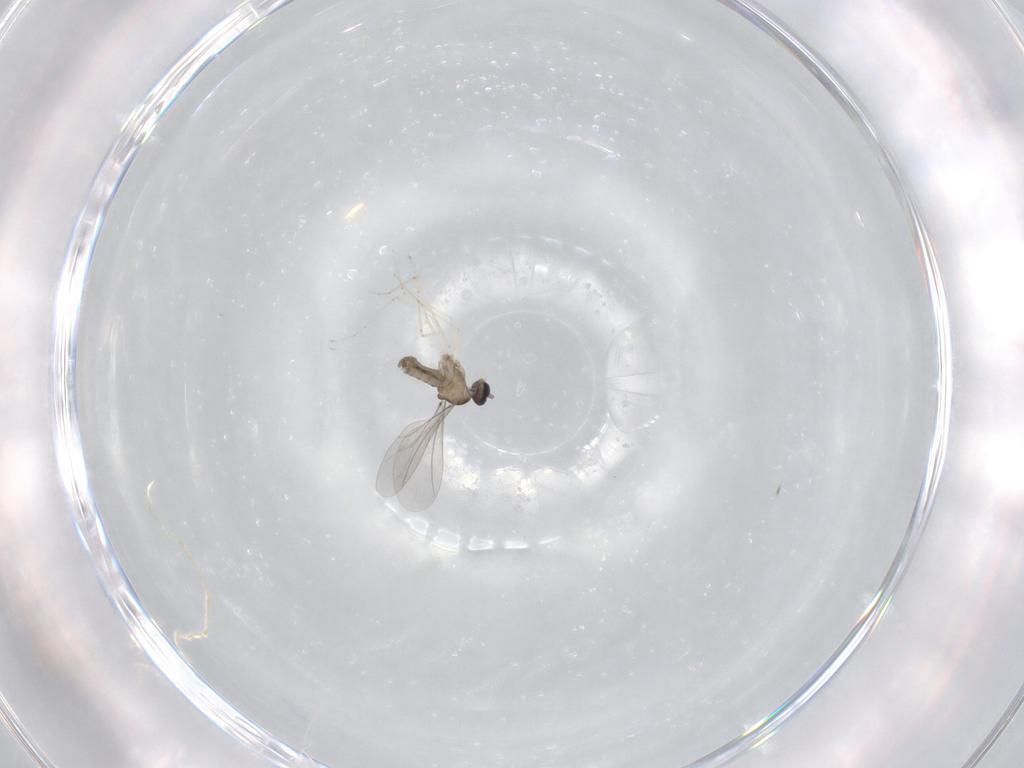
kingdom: Animalia
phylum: Arthropoda
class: Insecta
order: Diptera
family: Cecidomyiidae
